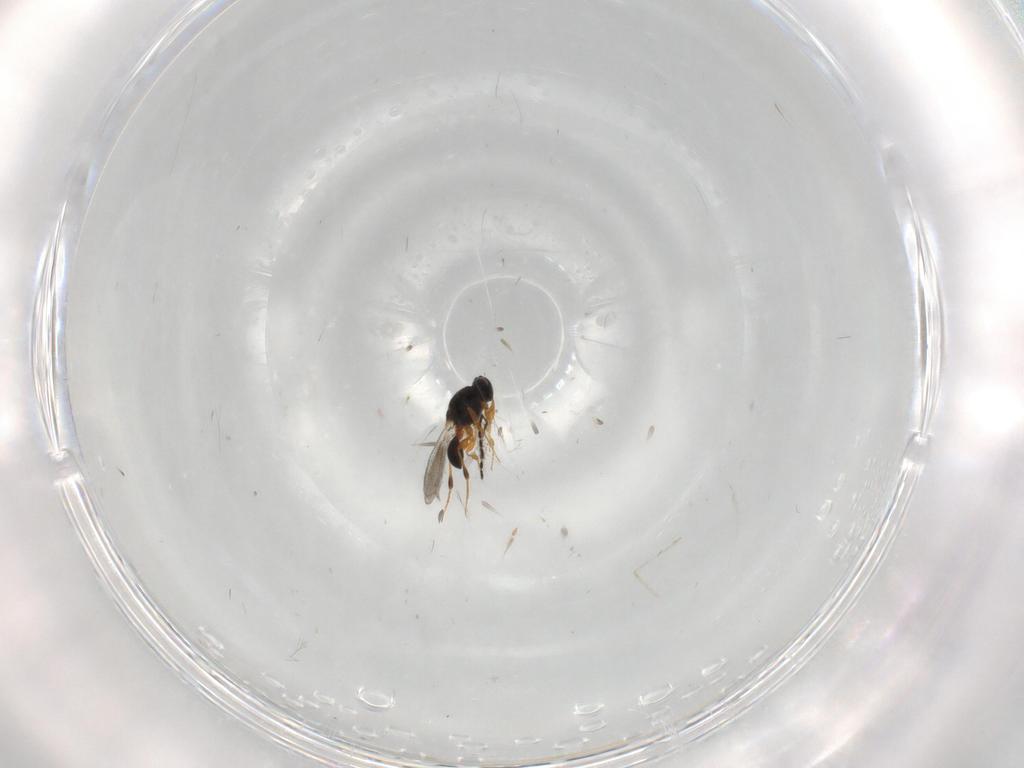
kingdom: Animalia
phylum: Arthropoda
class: Insecta
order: Hymenoptera
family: Platygastridae
